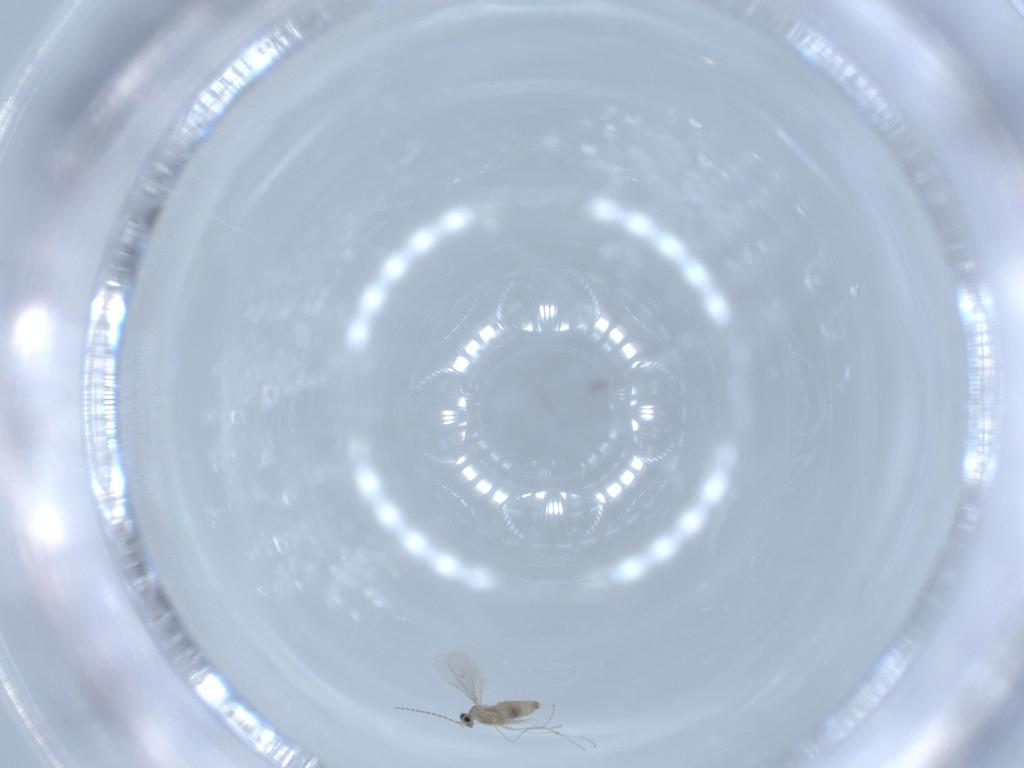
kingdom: Animalia
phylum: Arthropoda
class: Insecta
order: Diptera
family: Cecidomyiidae
